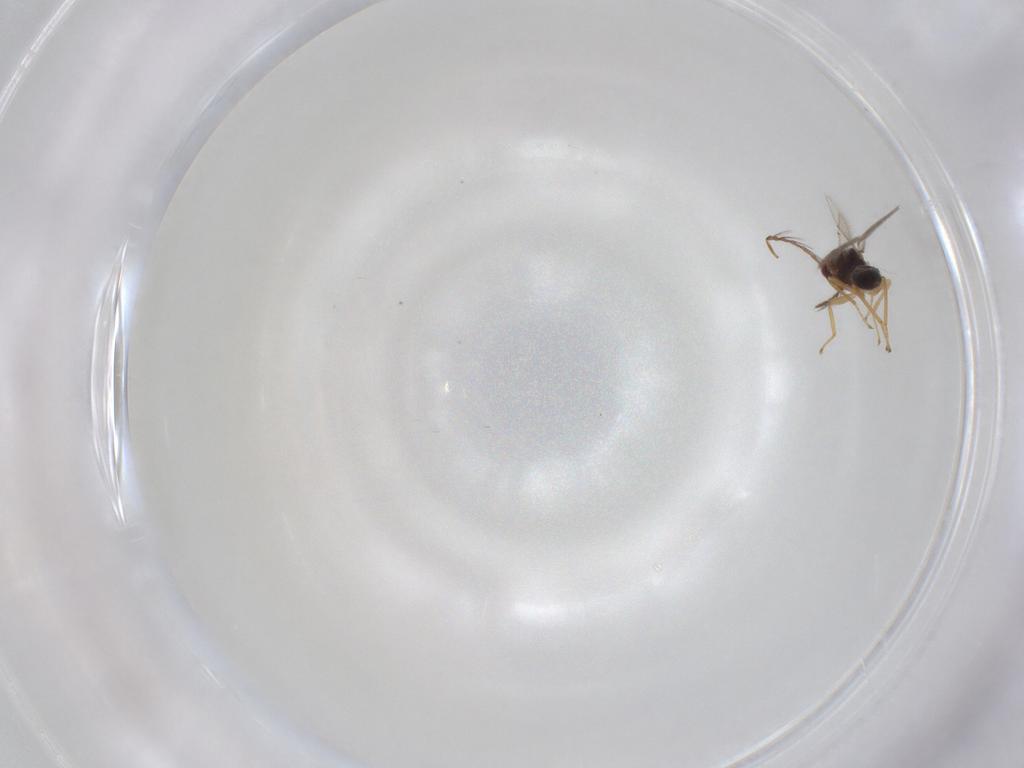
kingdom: Animalia
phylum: Arthropoda
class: Insecta
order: Hymenoptera
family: Eulophidae
